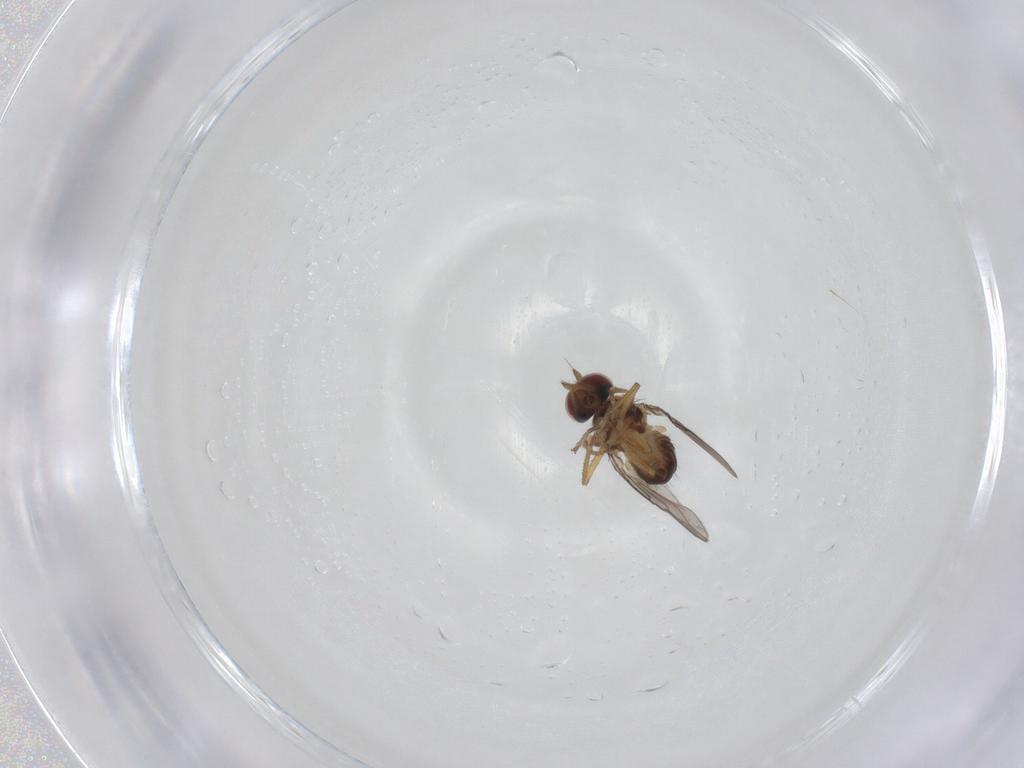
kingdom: Animalia
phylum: Arthropoda
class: Insecta
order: Diptera
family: Ephydridae
